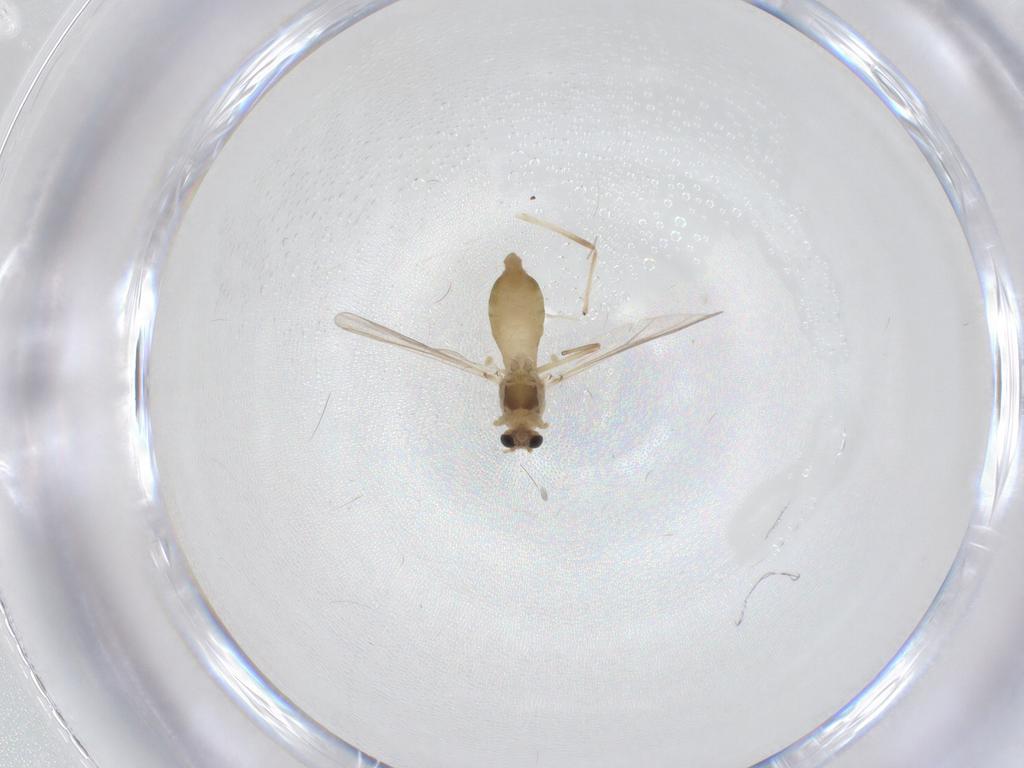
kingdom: Animalia
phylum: Arthropoda
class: Insecta
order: Diptera
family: Chironomidae
